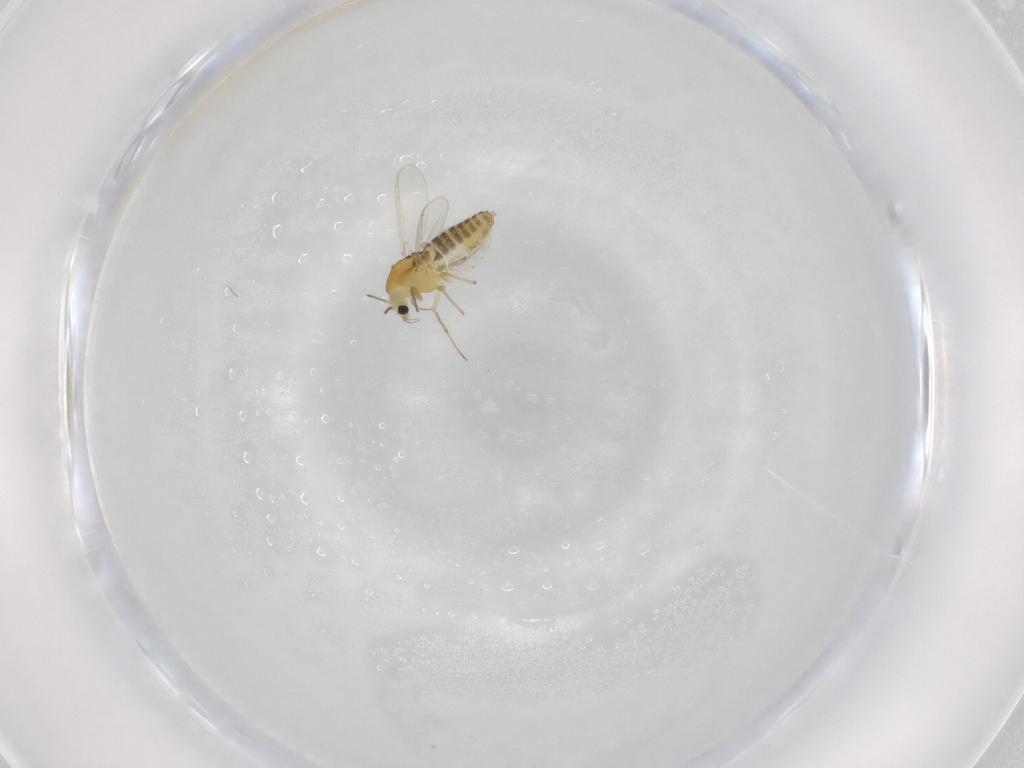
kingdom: Animalia
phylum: Arthropoda
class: Insecta
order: Diptera
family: Chironomidae
